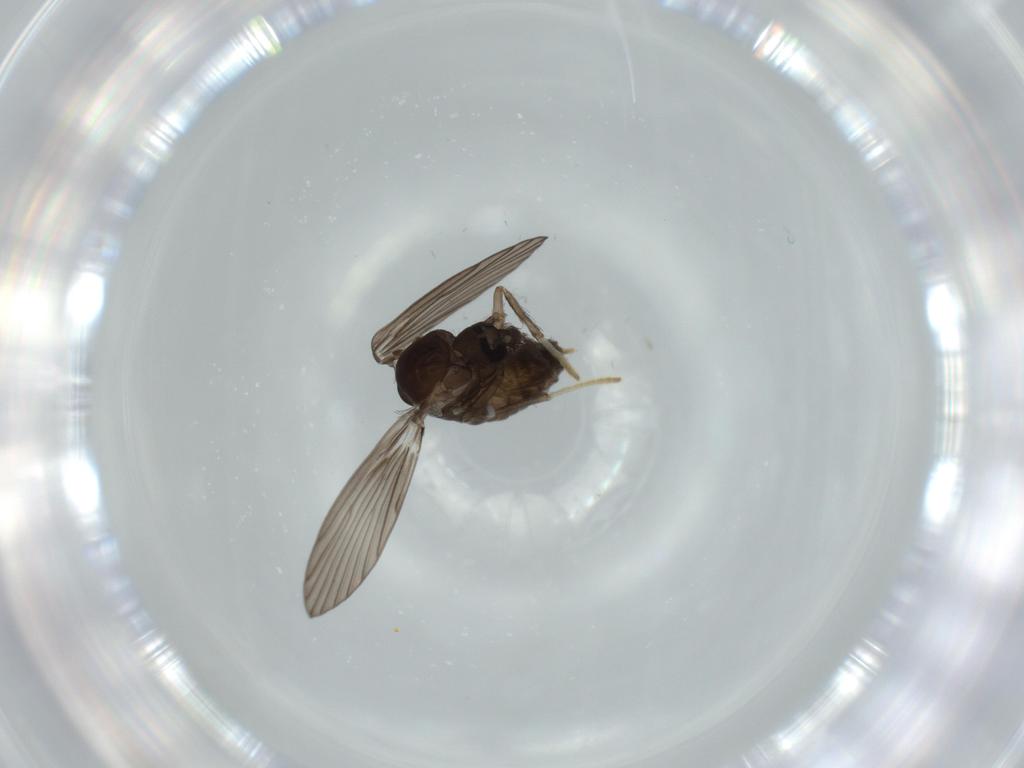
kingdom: Animalia
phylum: Arthropoda
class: Insecta
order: Diptera
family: Psychodidae
